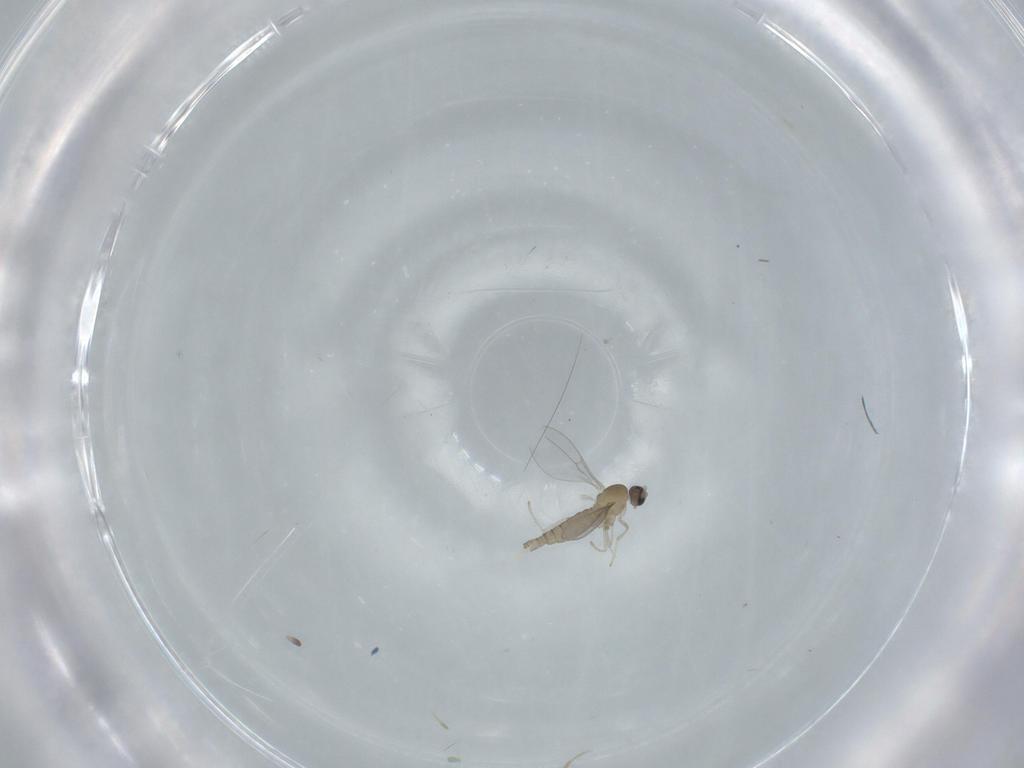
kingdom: Animalia
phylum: Arthropoda
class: Insecta
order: Diptera
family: Cecidomyiidae
